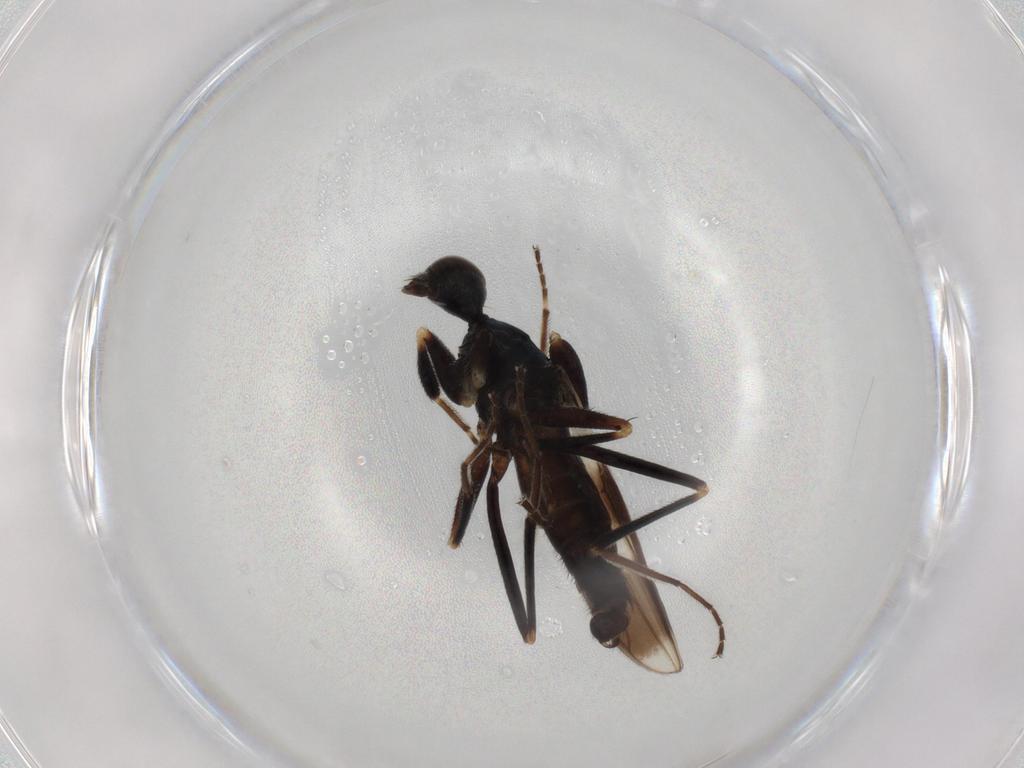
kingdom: Animalia
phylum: Arthropoda
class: Insecta
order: Diptera
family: Hybotidae
